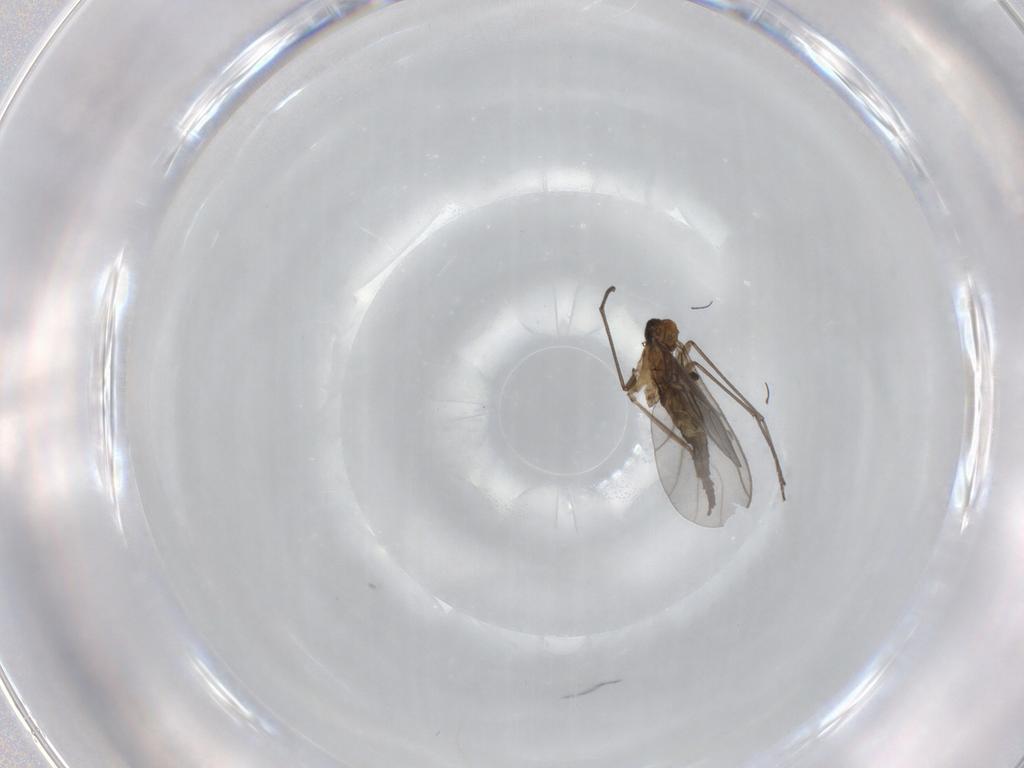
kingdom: Animalia
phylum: Arthropoda
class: Insecta
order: Diptera
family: Sciaridae
